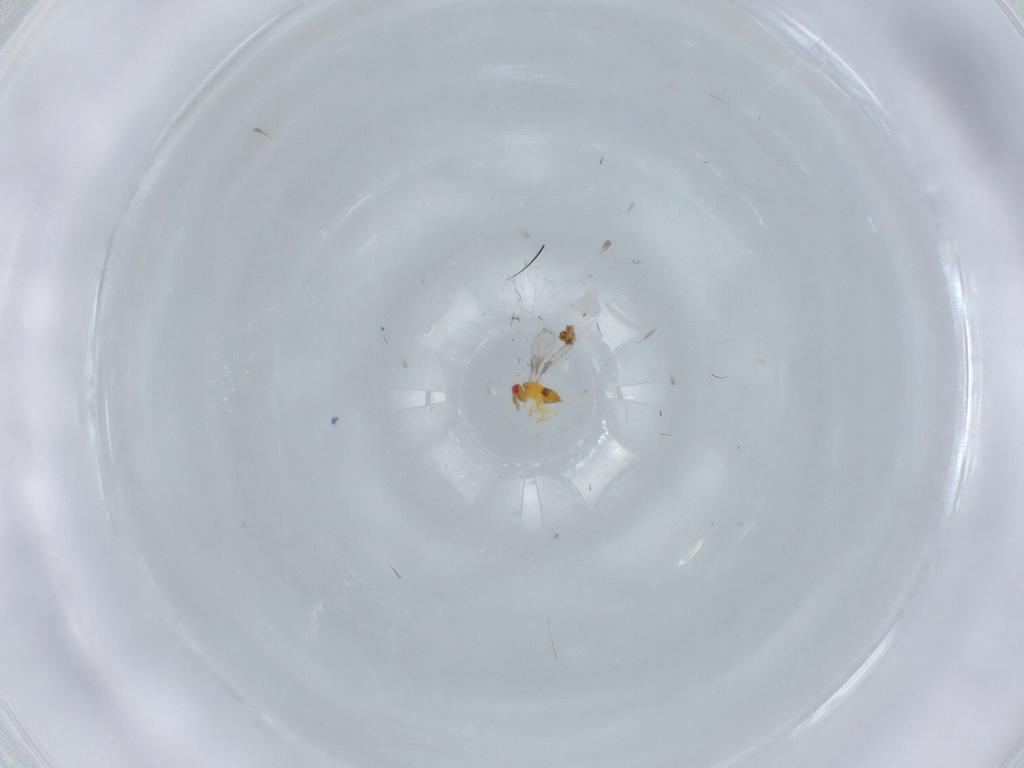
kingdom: Animalia
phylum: Arthropoda
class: Insecta
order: Hymenoptera
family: Trichogrammatidae
